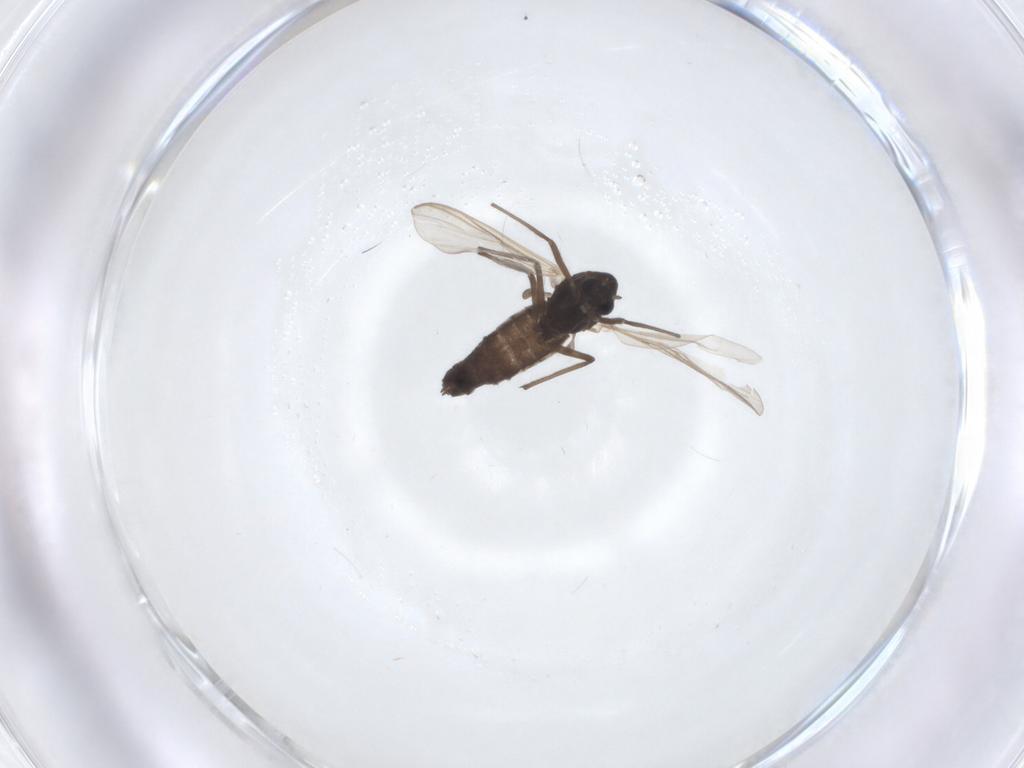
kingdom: Animalia
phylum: Arthropoda
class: Insecta
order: Diptera
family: Chironomidae
